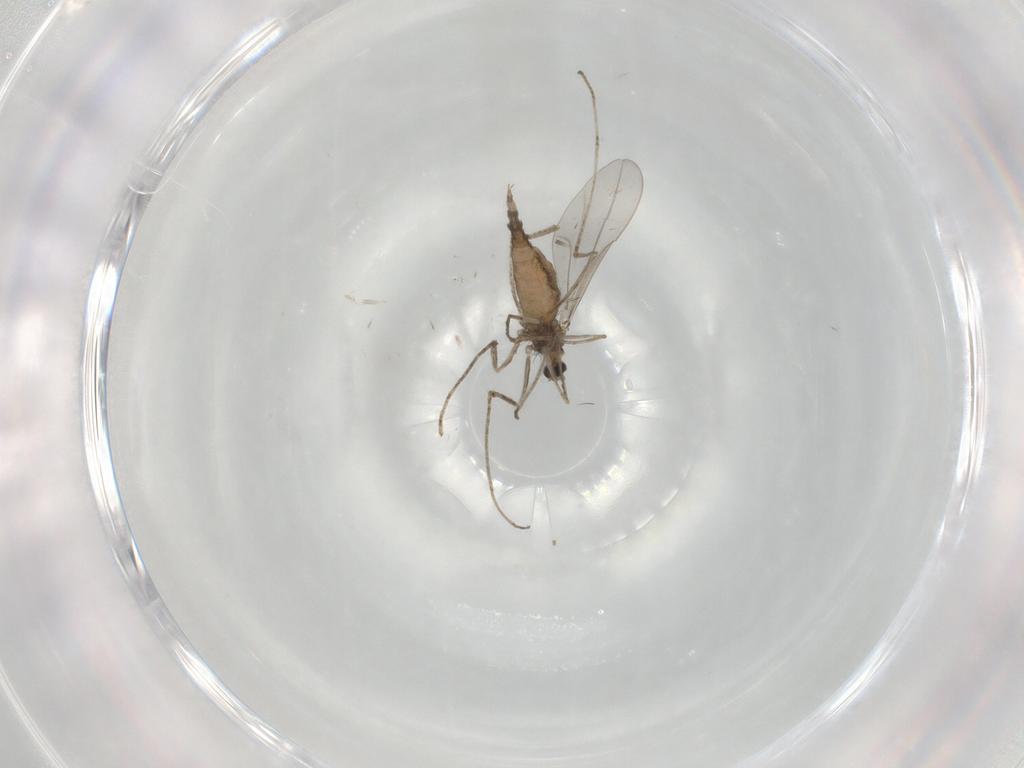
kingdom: Animalia
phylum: Arthropoda
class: Insecta
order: Diptera
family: Cecidomyiidae
